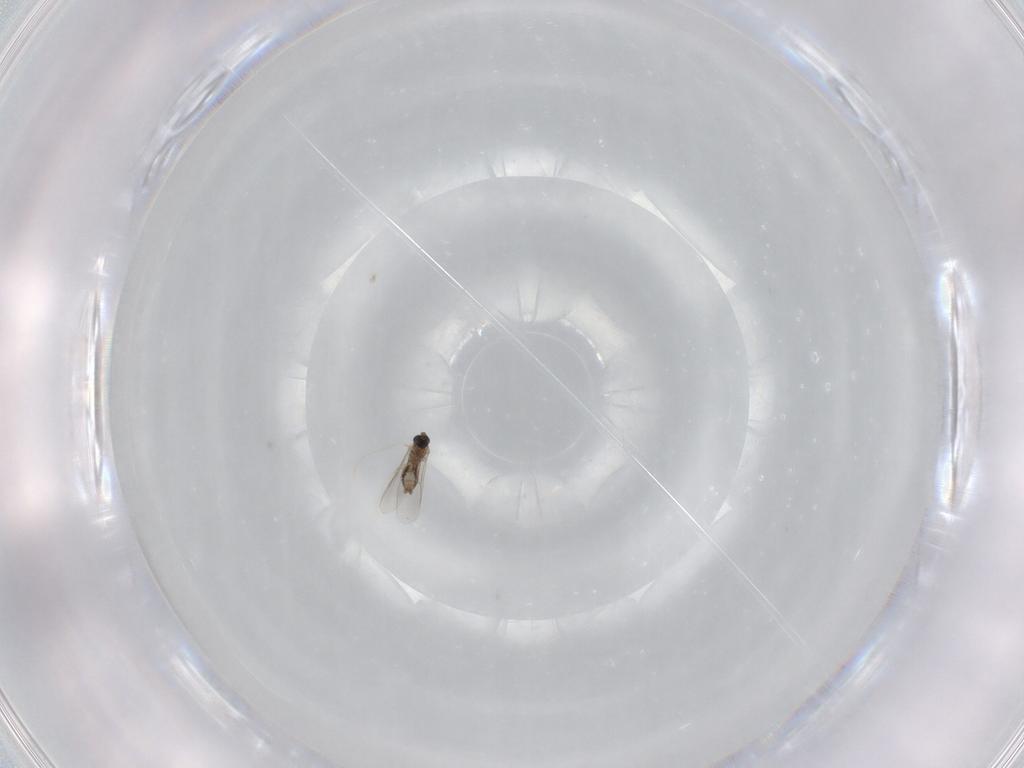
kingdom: Animalia
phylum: Arthropoda
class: Insecta
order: Diptera
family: Cecidomyiidae
